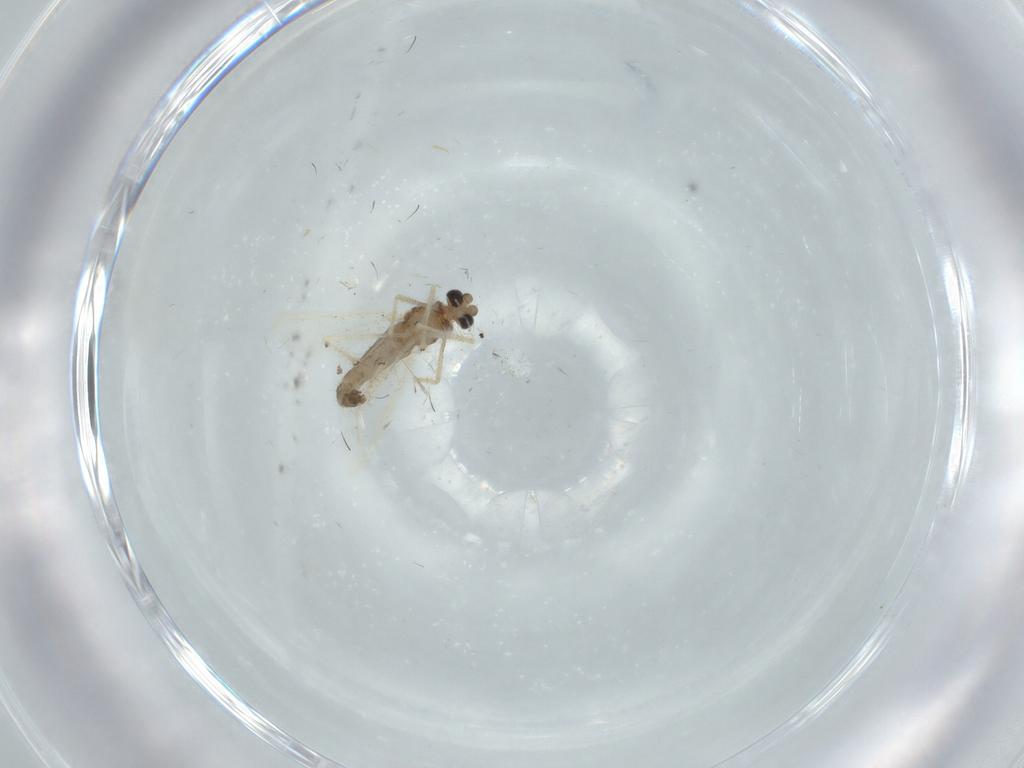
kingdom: Animalia
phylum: Arthropoda
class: Insecta
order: Diptera
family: Chironomidae
